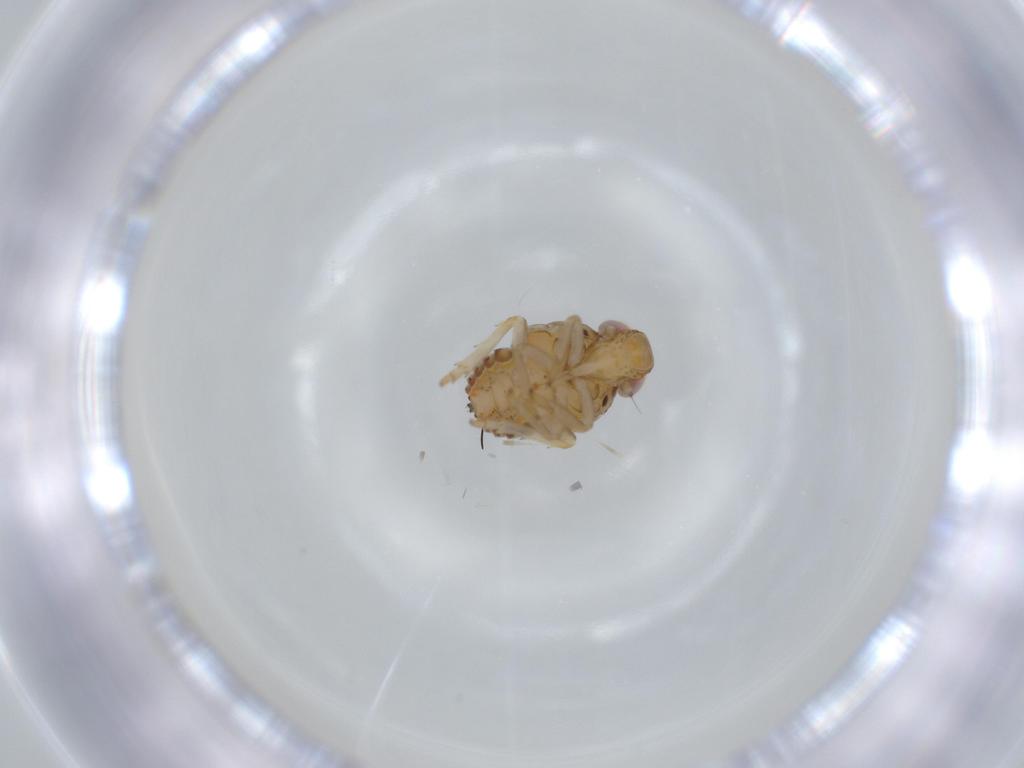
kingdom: Animalia
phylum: Arthropoda
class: Insecta
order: Hemiptera
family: Issidae
